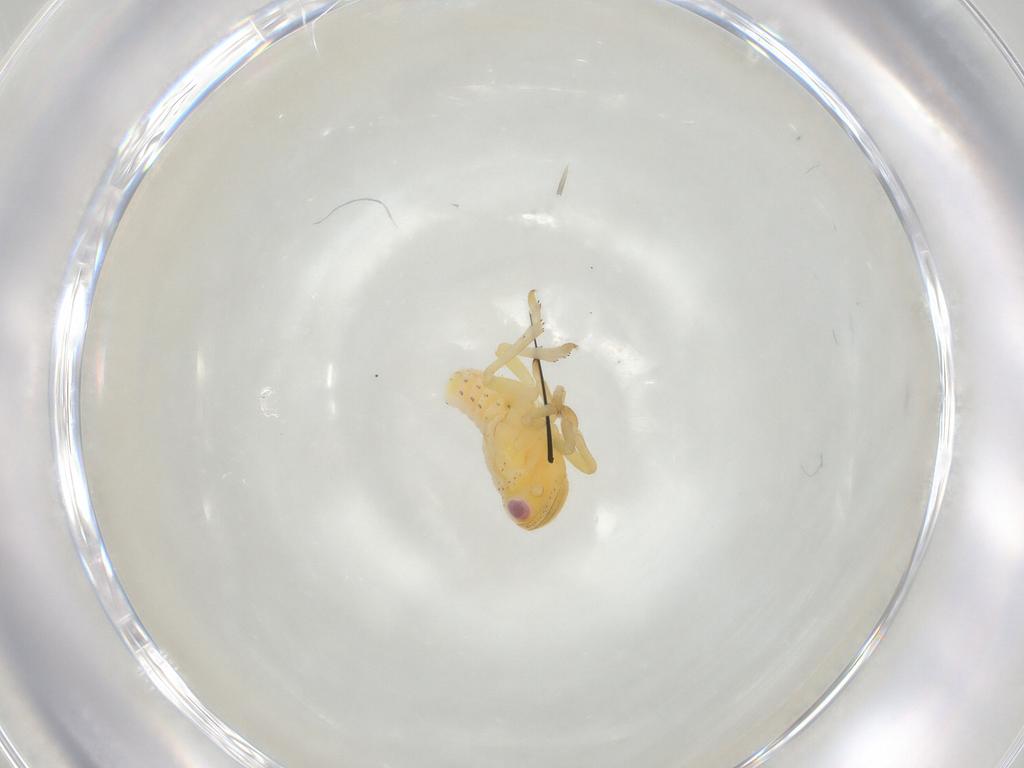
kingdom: Animalia
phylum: Arthropoda
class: Insecta
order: Hemiptera
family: Tropiduchidae
